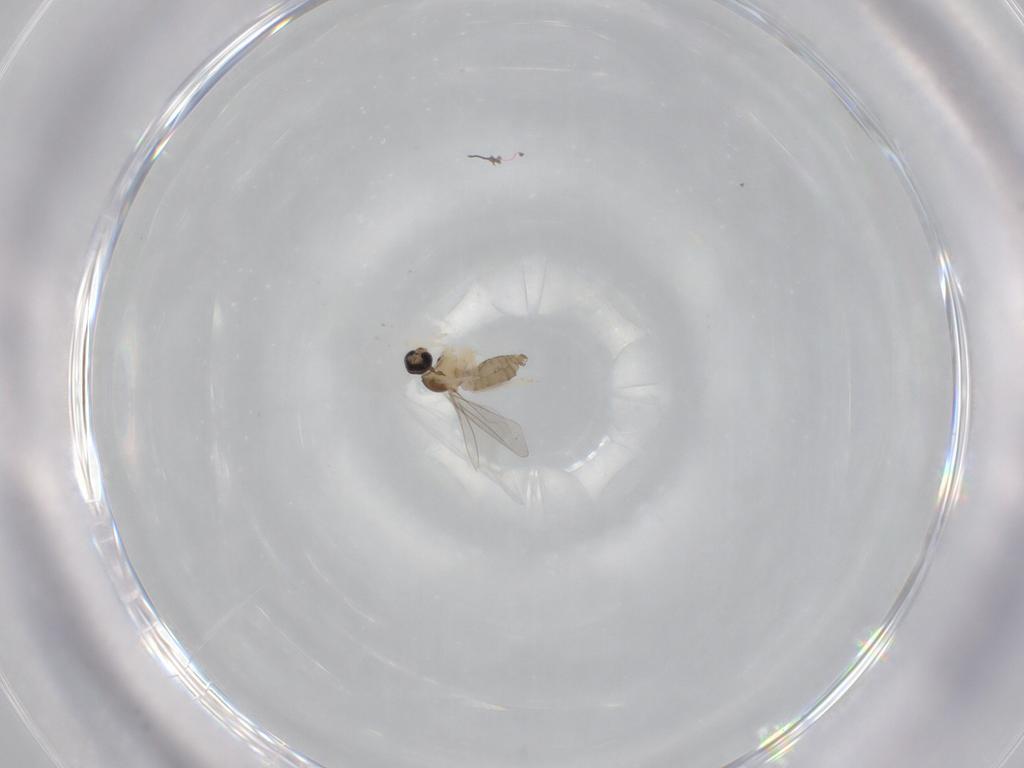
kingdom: Animalia
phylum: Arthropoda
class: Insecta
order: Diptera
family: Cecidomyiidae
